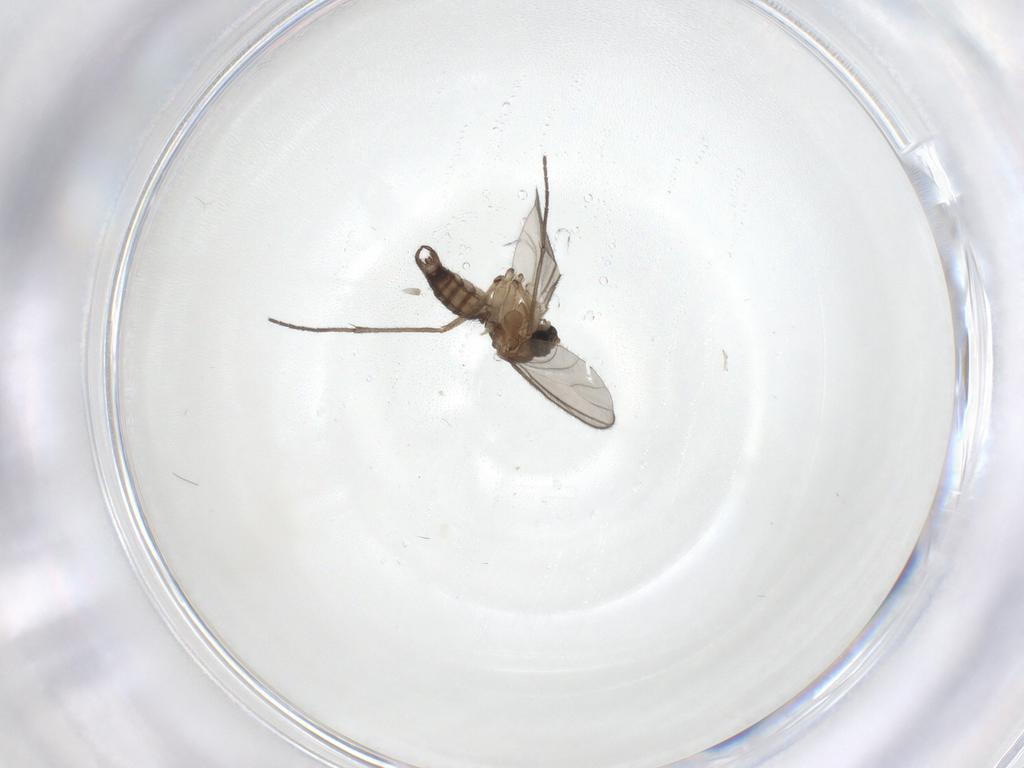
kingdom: Animalia
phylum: Arthropoda
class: Insecta
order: Diptera
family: Sciaridae
